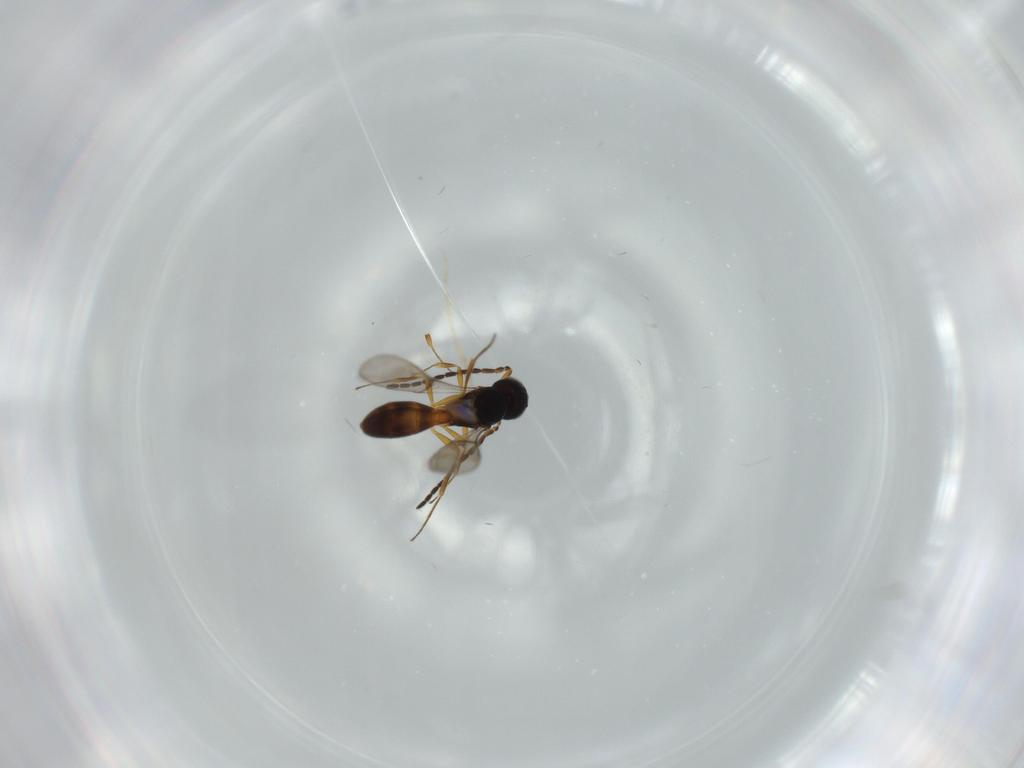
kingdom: Animalia
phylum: Arthropoda
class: Insecta
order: Hymenoptera
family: Scelionidae
